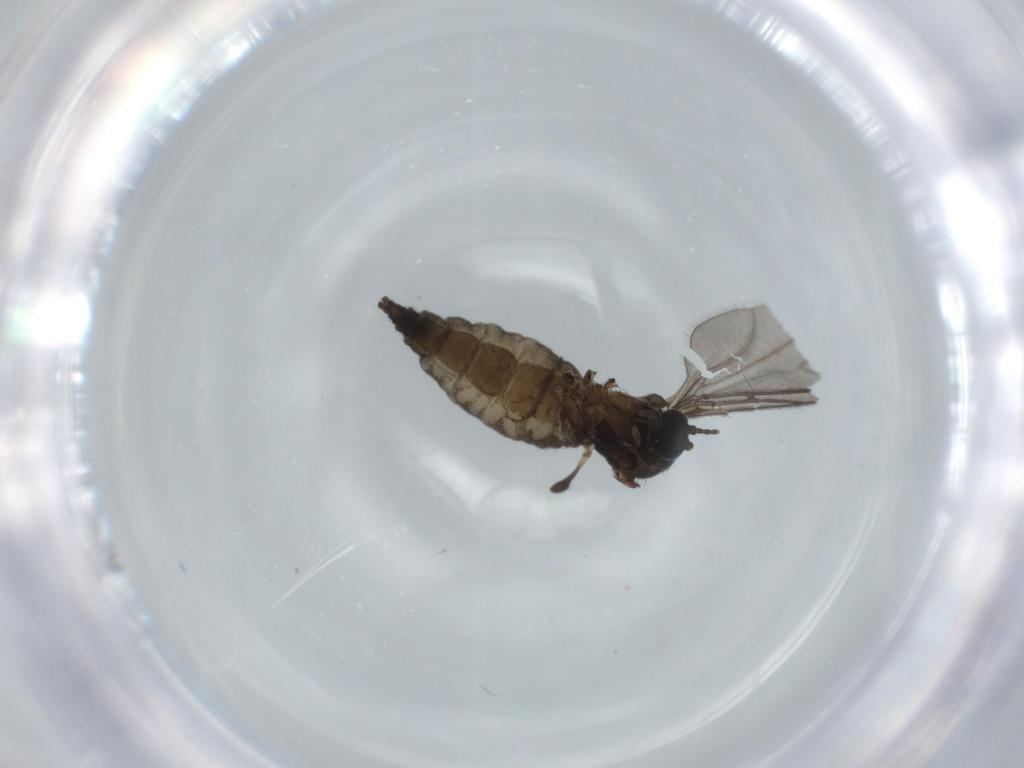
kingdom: Animalia
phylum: Arthropoda
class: Insecta
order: Diptera
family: Sciaridae
